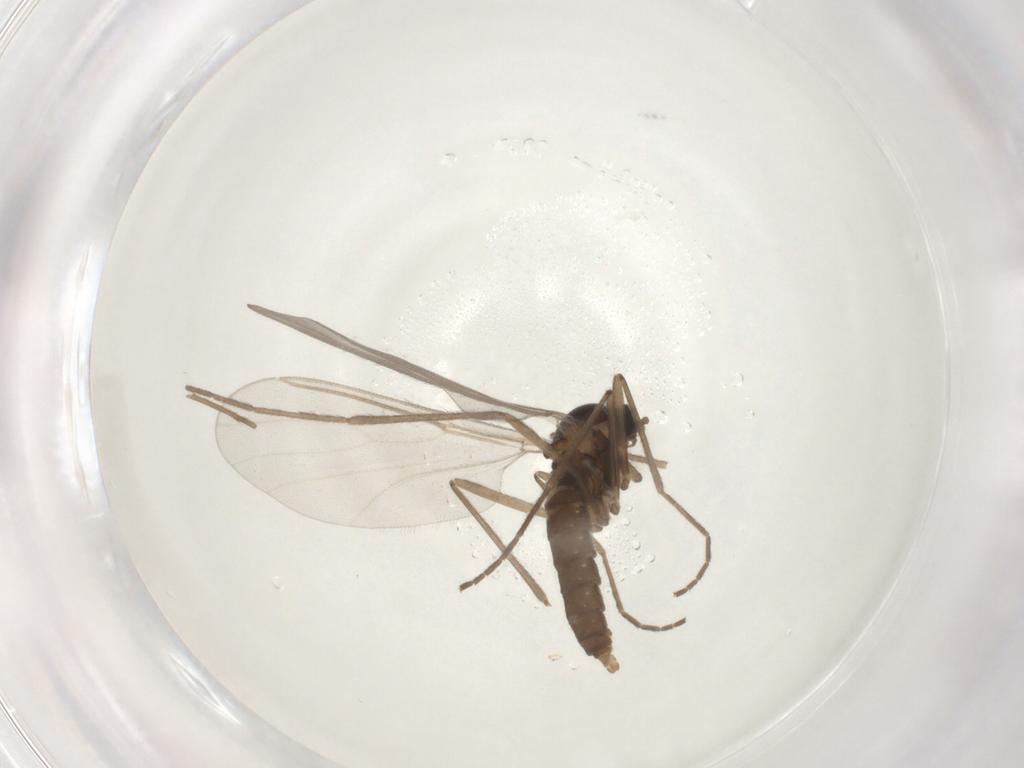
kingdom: Animalia
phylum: Arthropoda
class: Insecta
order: Diptera
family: Cecidomyiidae
